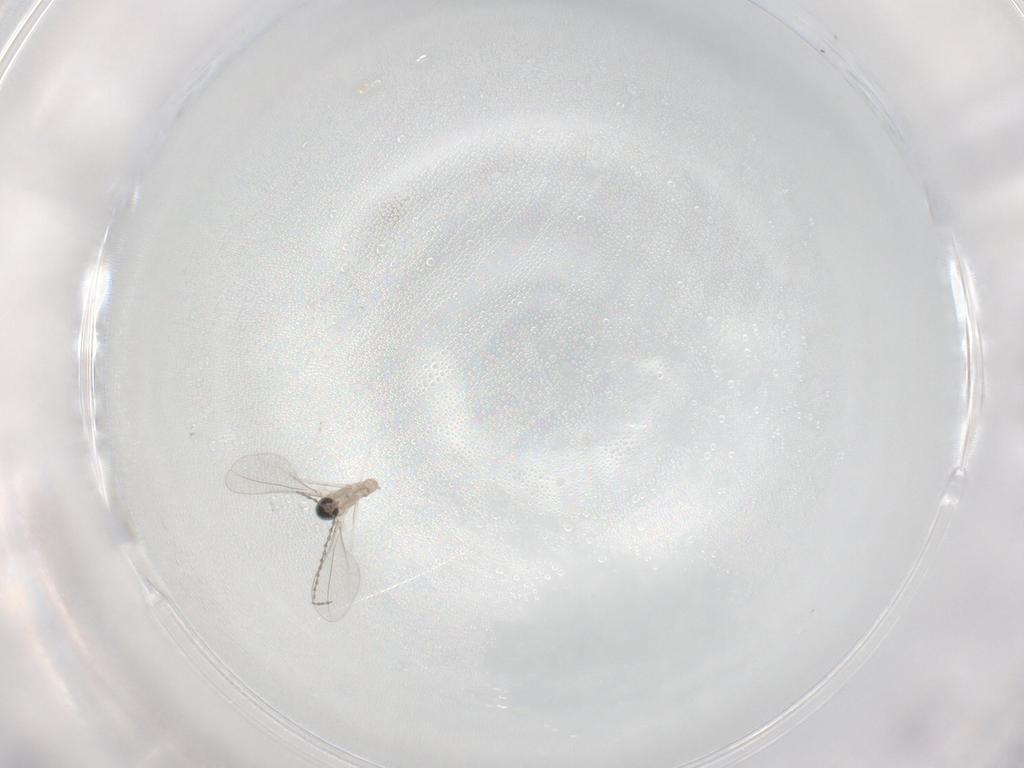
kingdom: Animalia
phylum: Arthropoda
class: Insecta
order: Diptera
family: Cecidomyiidae
